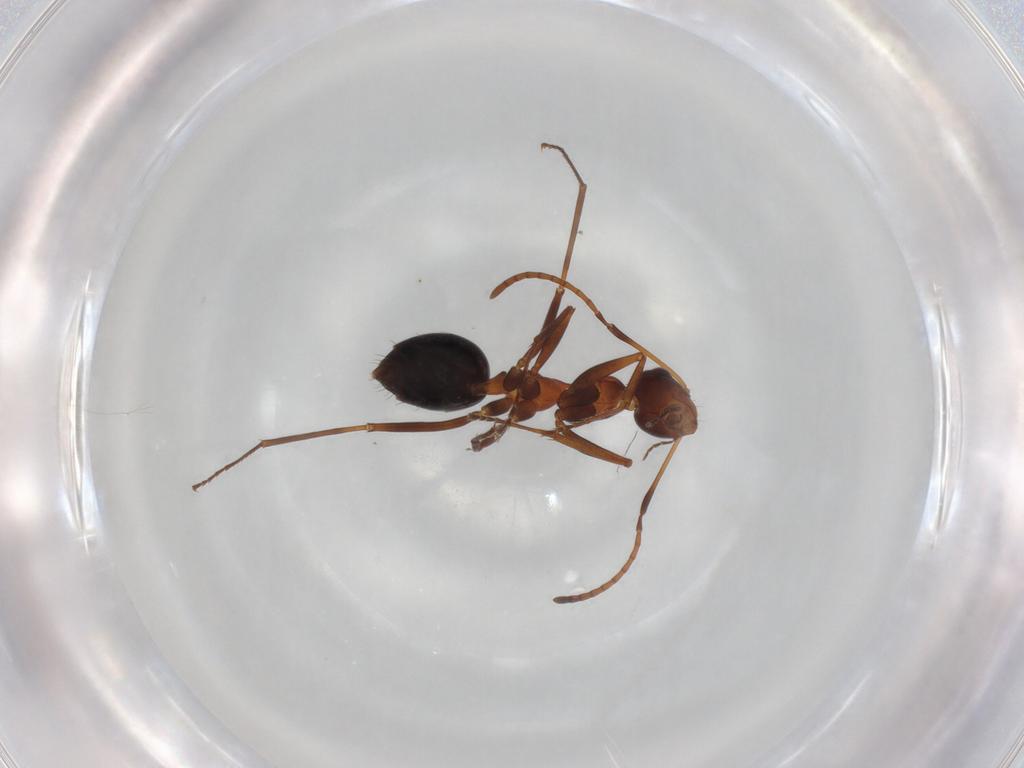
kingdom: Animalia
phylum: Arthropoda
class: Insecta
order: Hymenoptera
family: Formicidae
